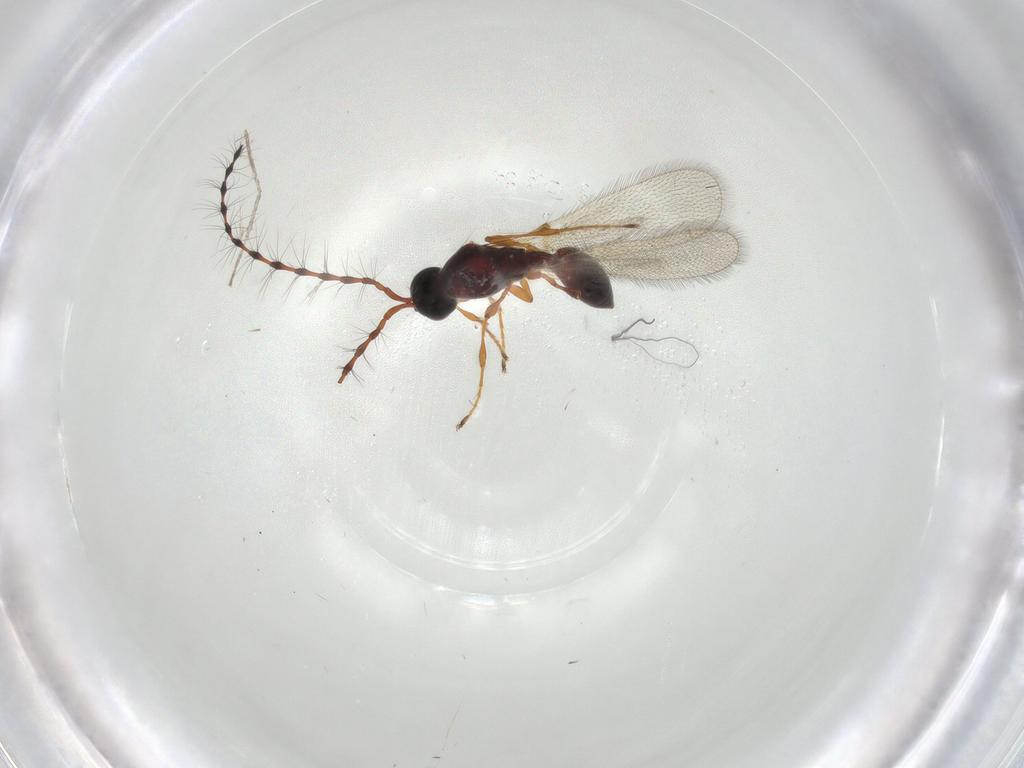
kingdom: Animalia
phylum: Arthropoda
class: Insecta
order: Hymenoptera
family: Diapriidae
